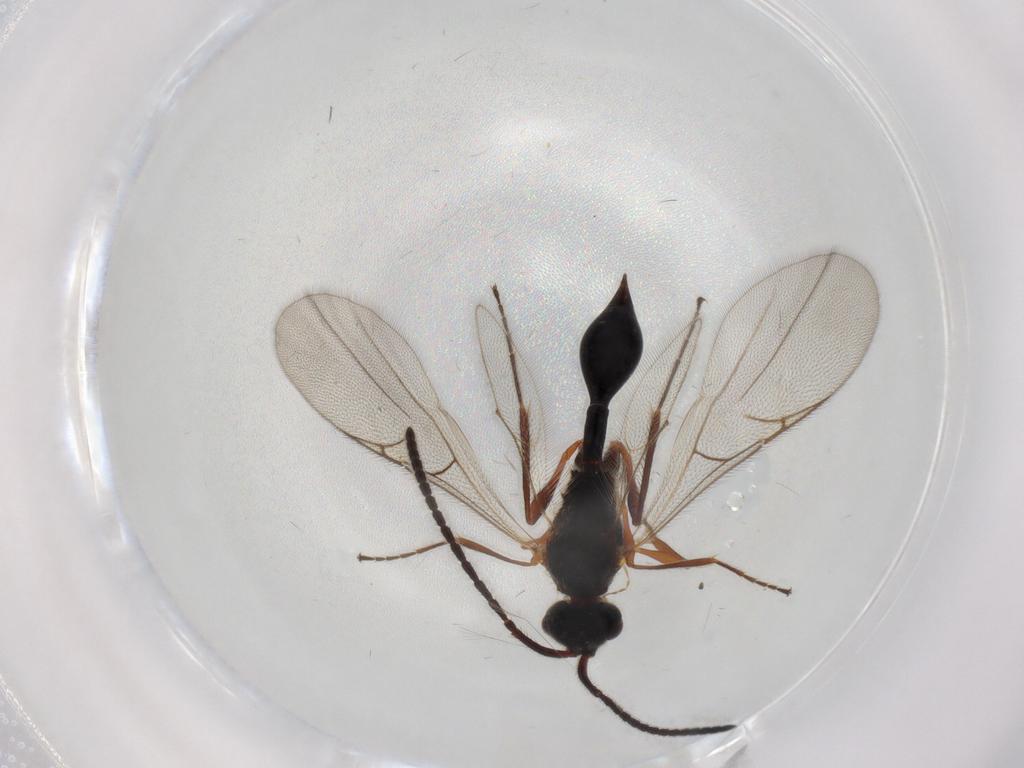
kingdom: Animalia
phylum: Arthropoda
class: Insecta
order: Hymenoptera
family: Diapriidae
